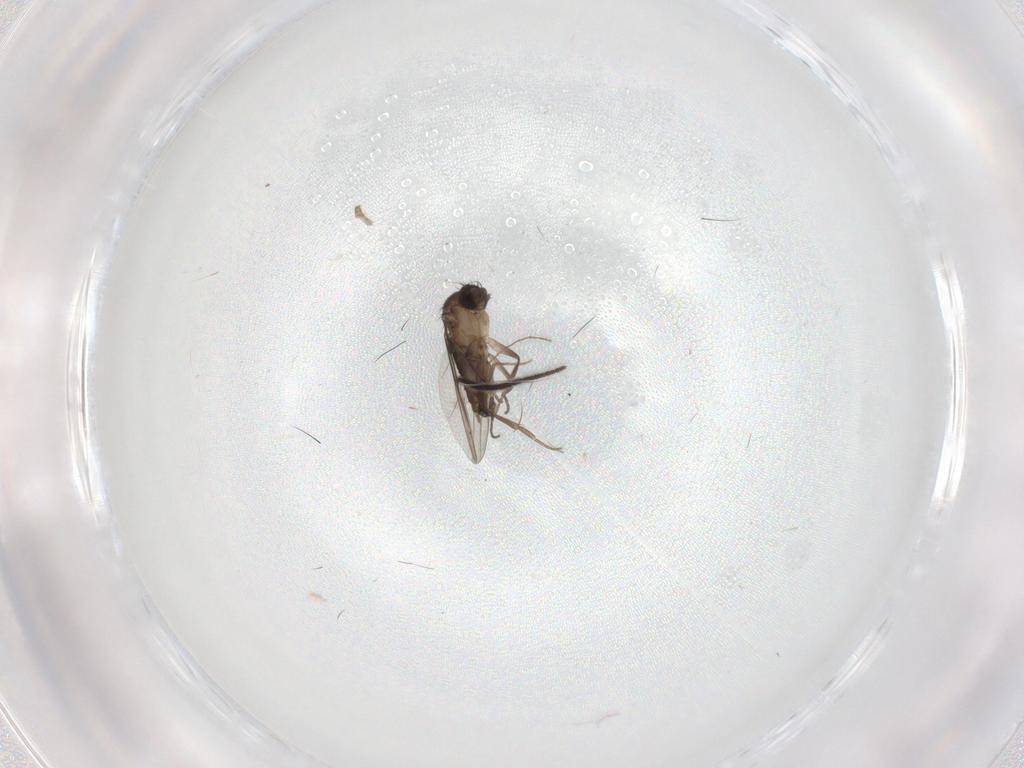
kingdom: Animalia
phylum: Arthropoda
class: Insecta
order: Diptera
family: Sciaridae
